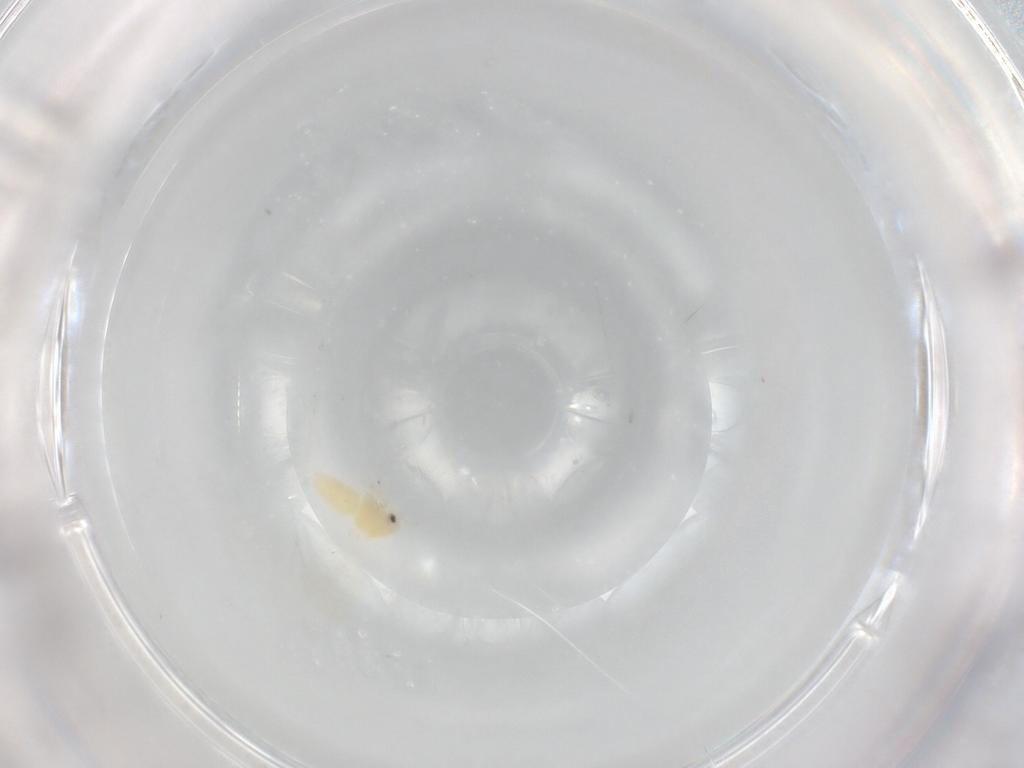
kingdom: Animalia
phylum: Arthropoda
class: Insecta
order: Hemiptera
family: Aleyrodidae
